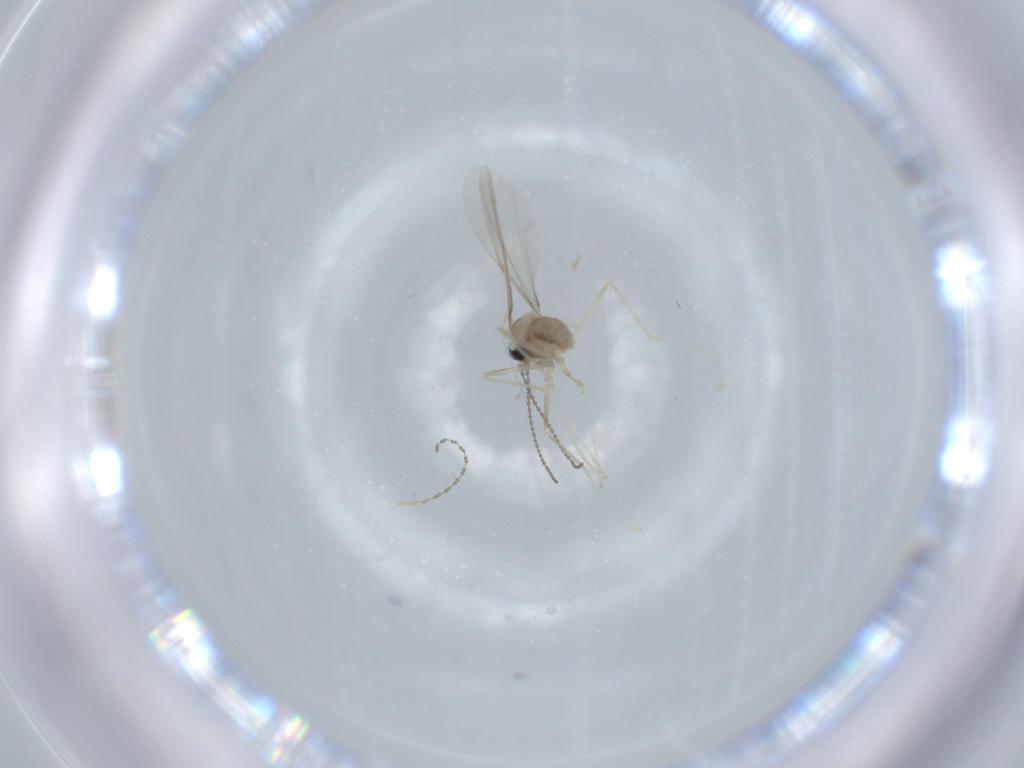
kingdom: Animalia
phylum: Arthropoda
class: Insecta
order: Diptera
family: Cecidomyiidae
